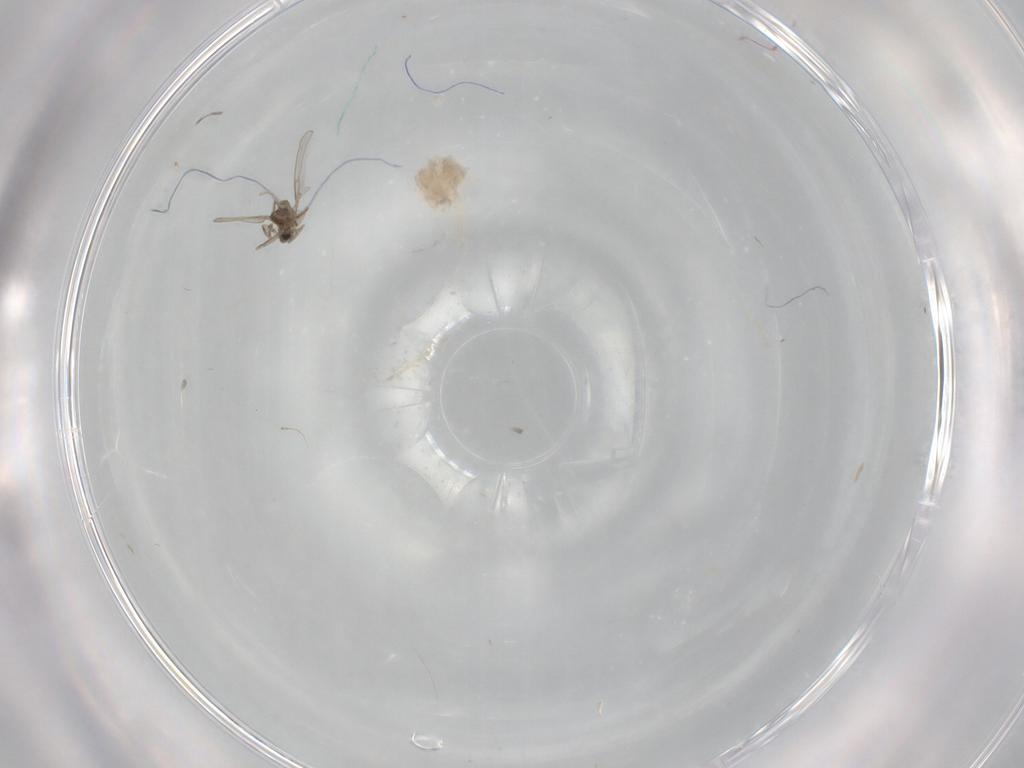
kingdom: Animalia
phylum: Arthropoda
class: Insecta
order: Diptera
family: Cecidomyiidae
